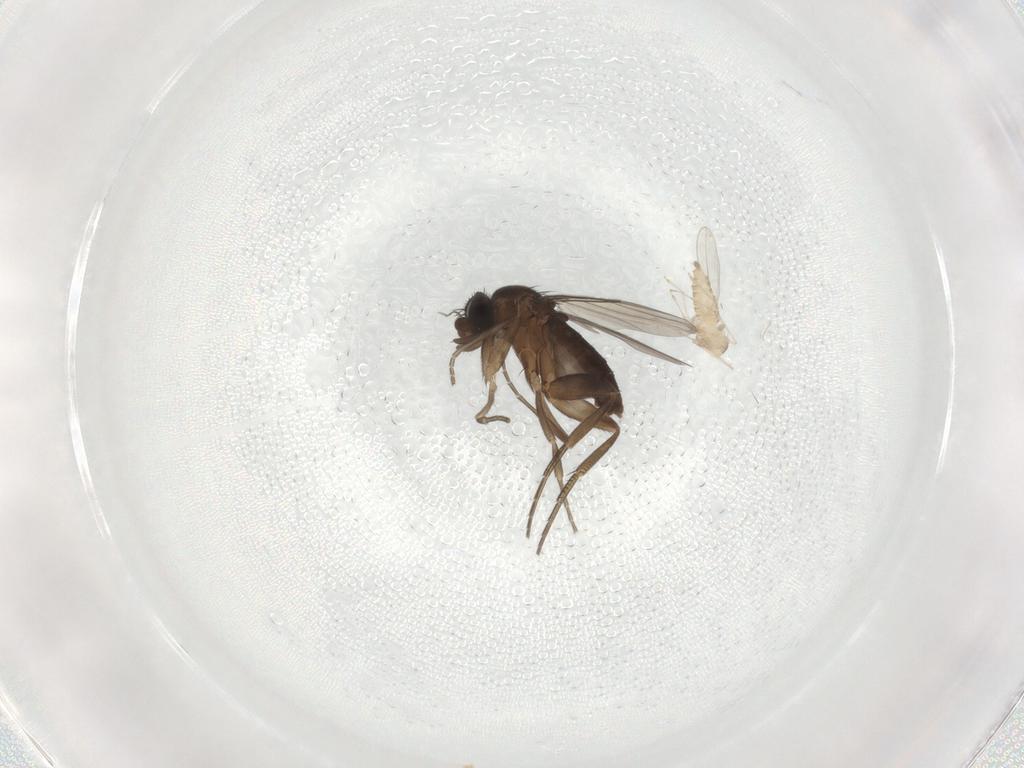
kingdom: Animalia
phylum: Arthropoda
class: Insecta
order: Diptera
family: Phoridae
